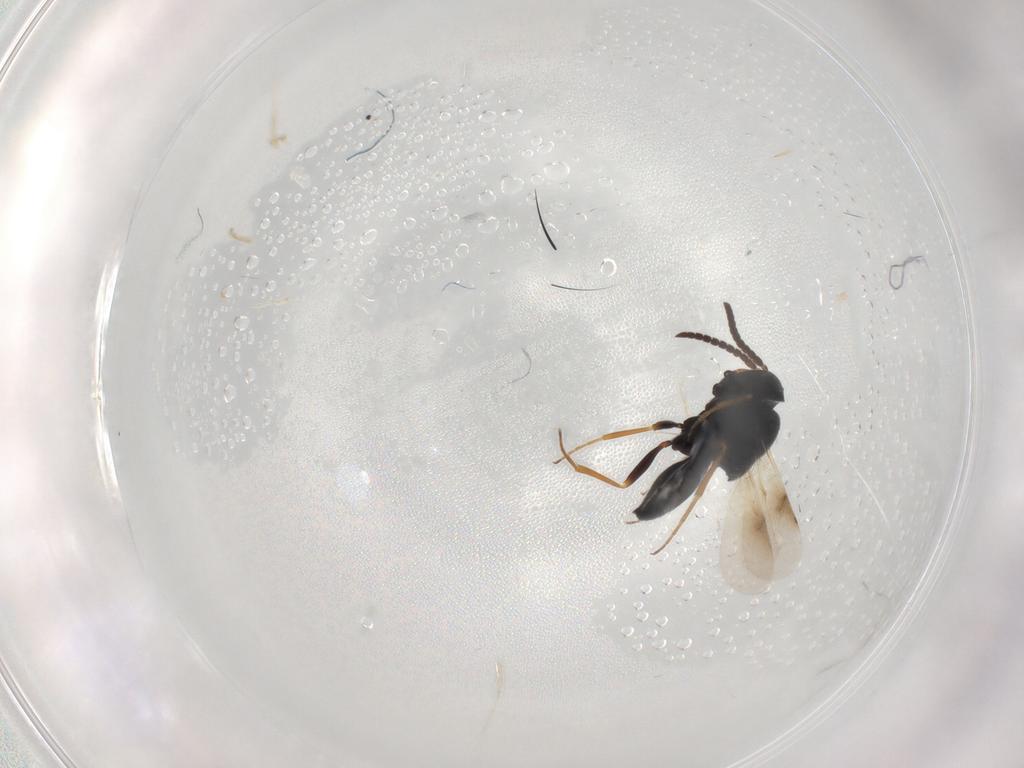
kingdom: Animalia
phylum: Arthropoda
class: Insecta
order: Hymenoptera
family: Scelionidae
